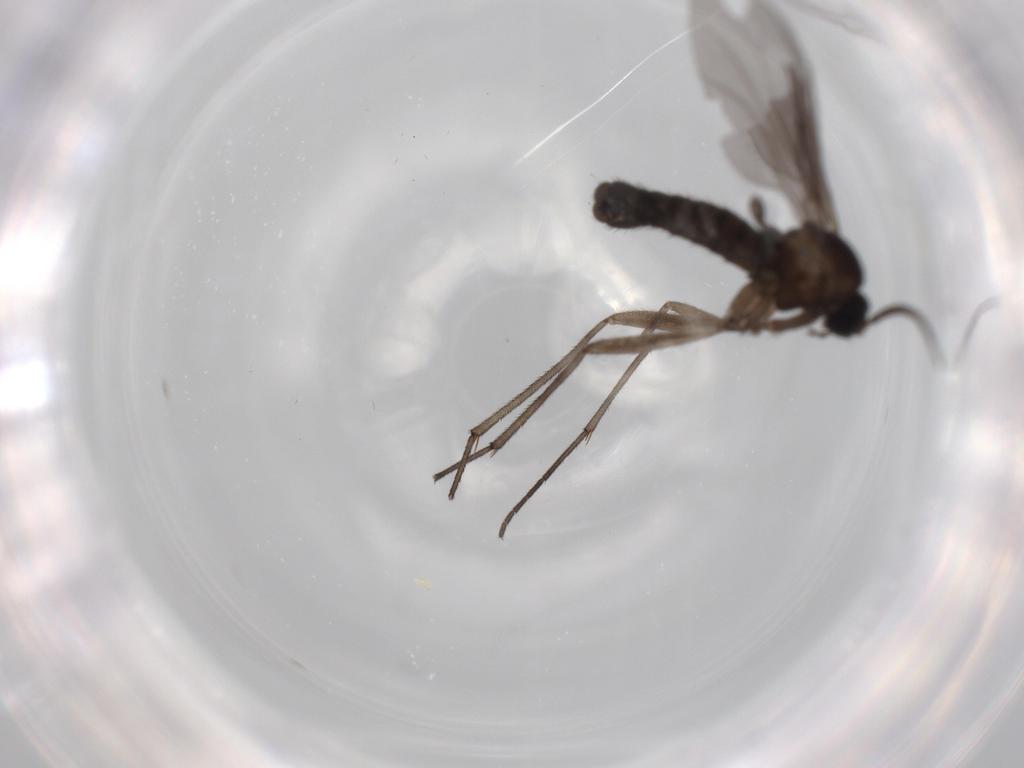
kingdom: Animalia
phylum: Arthropoda
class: Insecta
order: Diptera
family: Sciaridae
